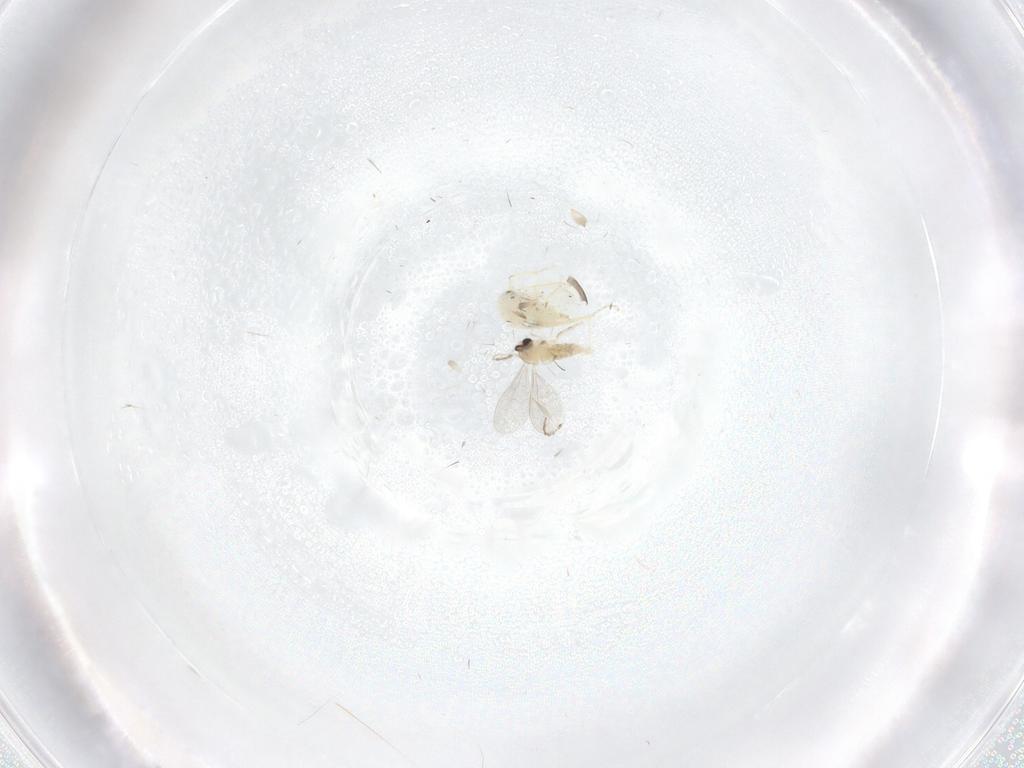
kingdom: Animalia
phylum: Arthropoda
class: Insecta
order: Diptera
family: Cecidomyiidae
